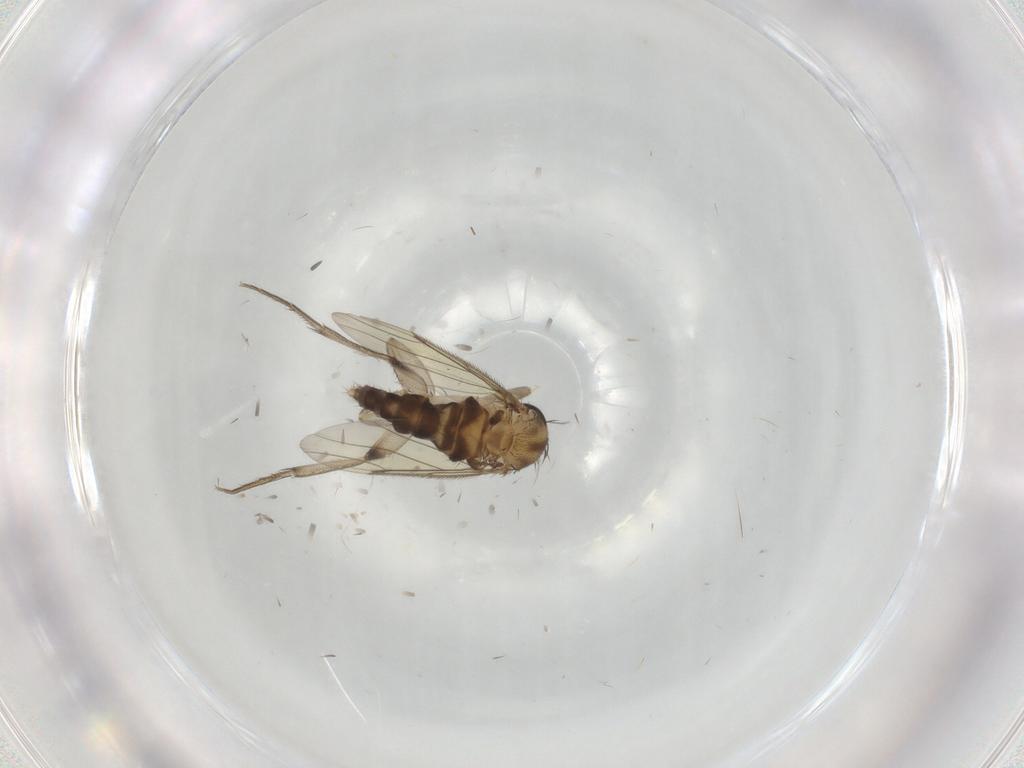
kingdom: Animalia
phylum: Arthropoda
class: Insecta
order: Diptera
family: Phoridae
